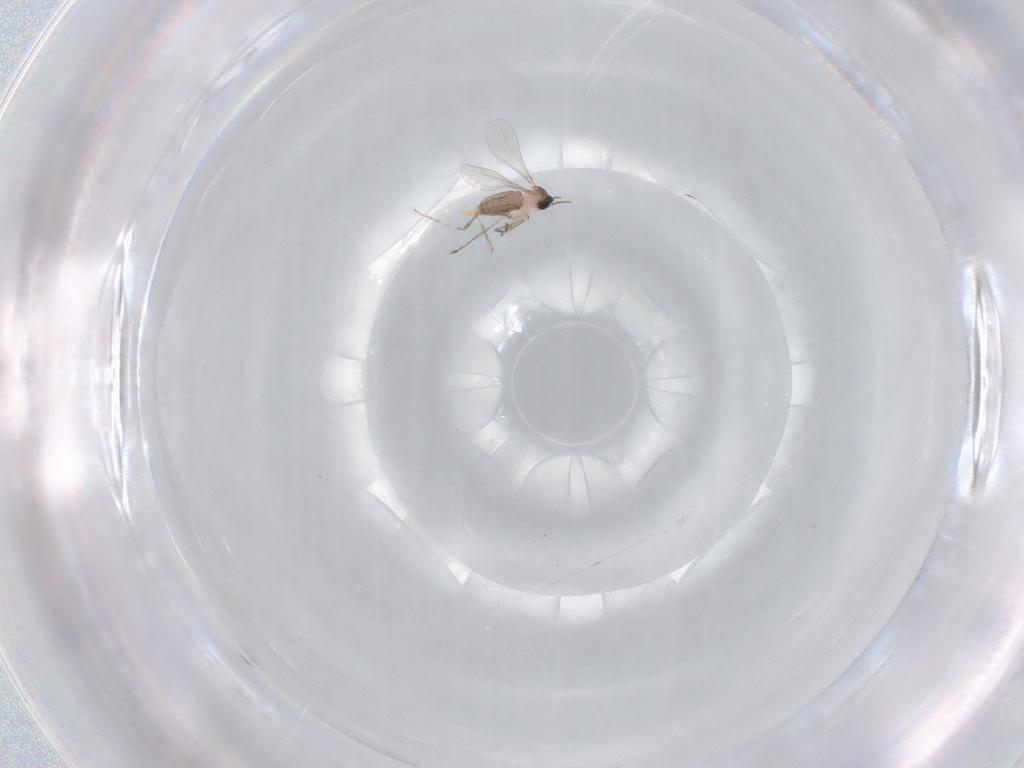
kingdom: Animalia
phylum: Arthropoda
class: Insecta
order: Diptera
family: Cecidomyiidae
